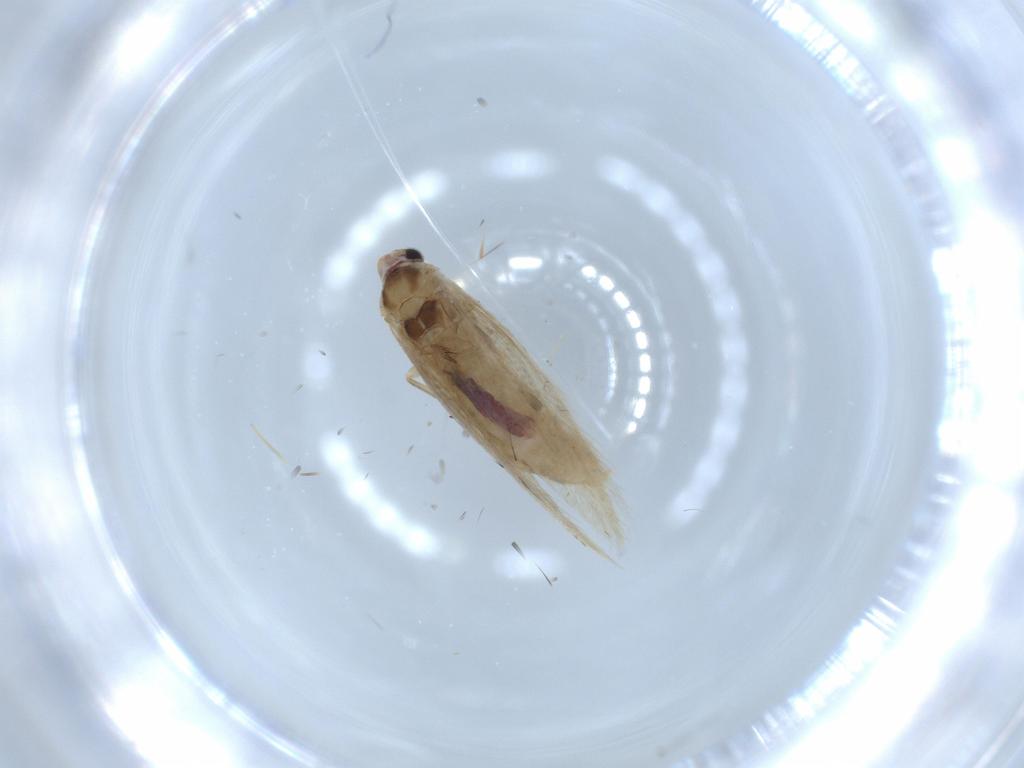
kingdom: Animalia
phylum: Arthropoda
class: Insecta
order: Lepidoptera
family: Bucculatricidae
